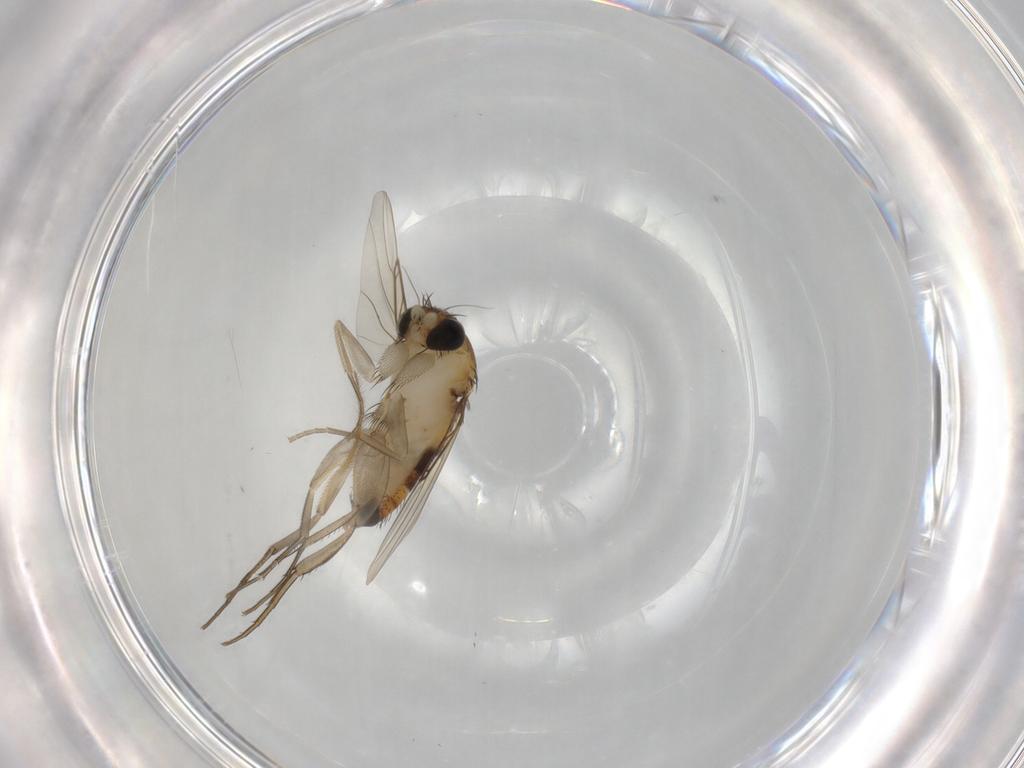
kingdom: Animalia
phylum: Arthropoda
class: Insecta
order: Diptera
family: Phoridae
